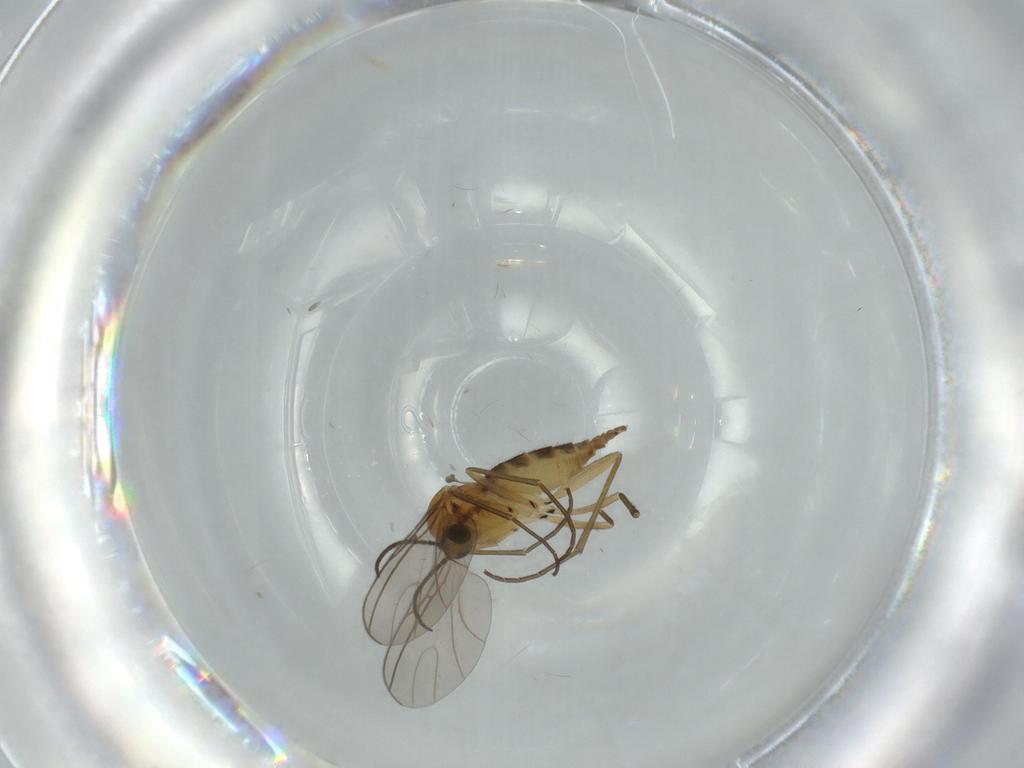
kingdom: Animalia
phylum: Arthropoda
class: Insecta
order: Diptera
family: Sciaridae
